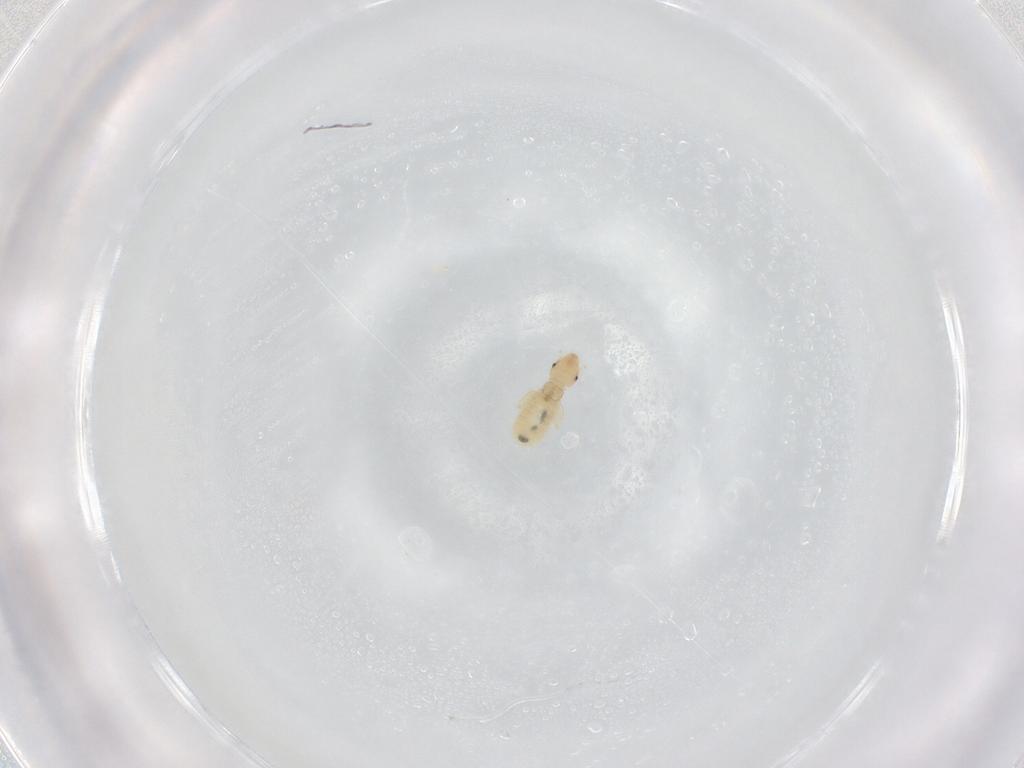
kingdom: Animalia
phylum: Arthropoda
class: Insecta
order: Psocodea
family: Liposcelididae
